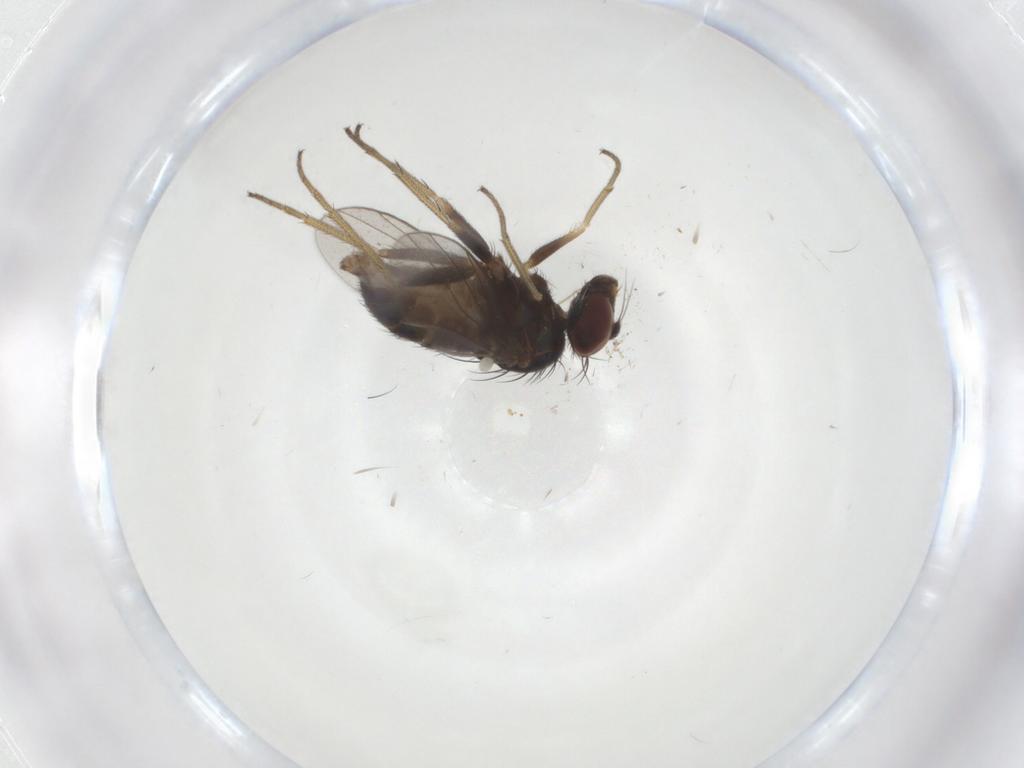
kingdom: Animalia
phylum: Arthropoda
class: Insecta
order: Diptera
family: Dolichopodidae
